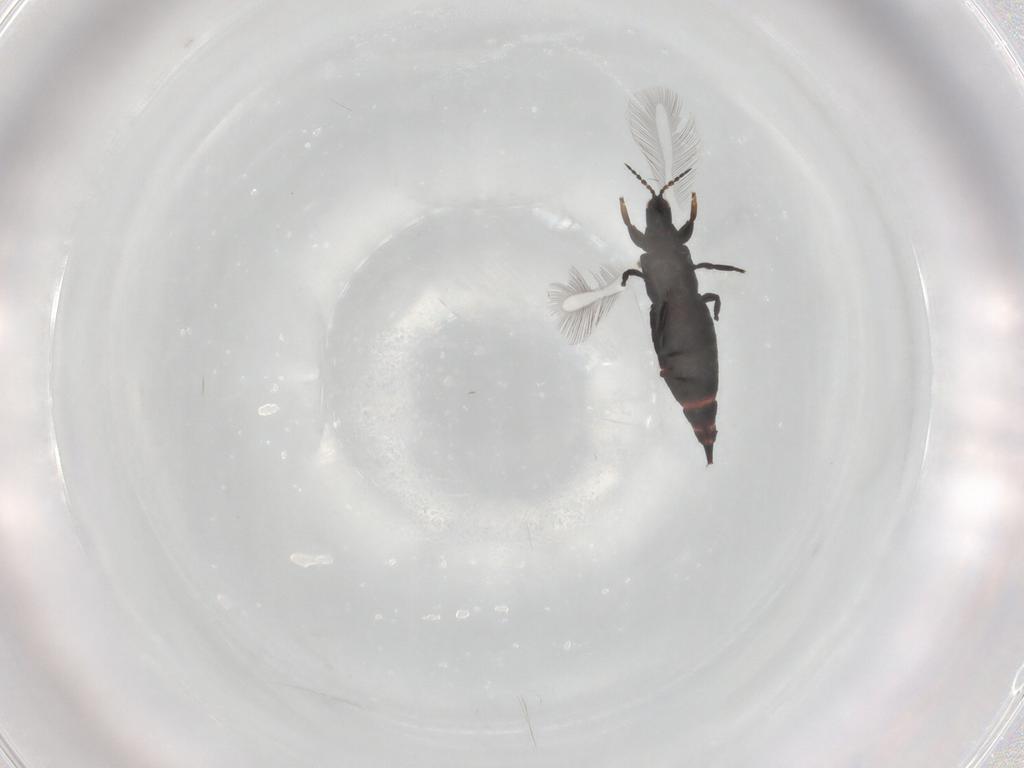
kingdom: Animalia
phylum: Arthropoda
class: Insecta
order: Thysanoptera
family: Phlaeothripidae
